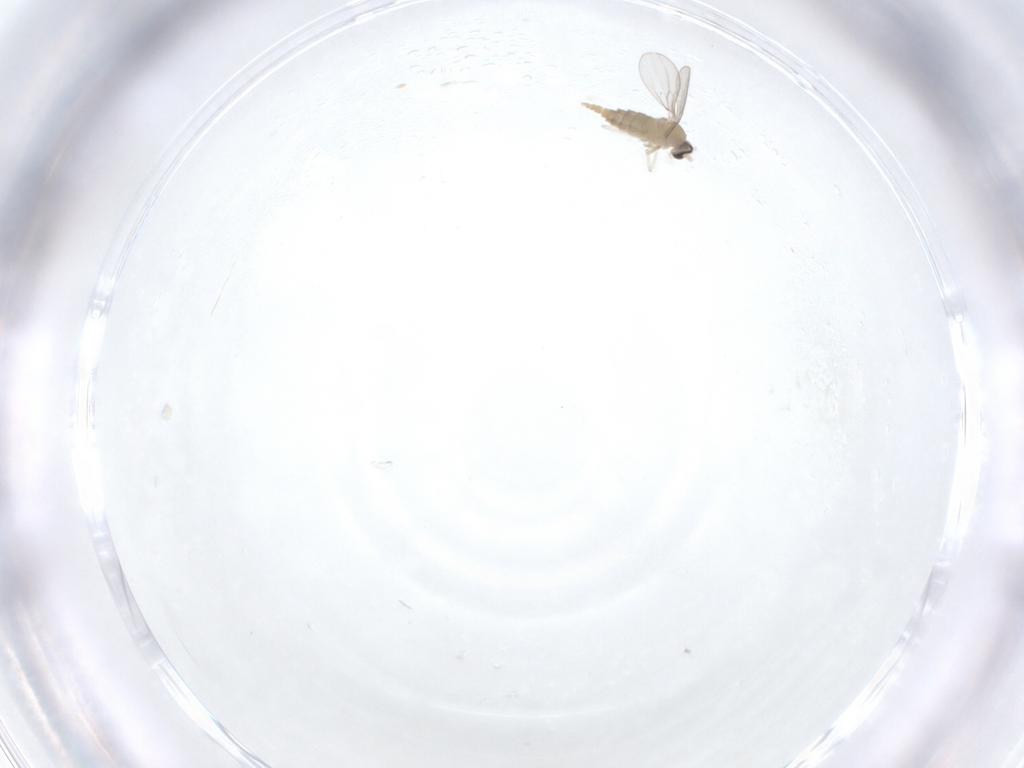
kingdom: Animalia
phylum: Arthropoda
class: Insecta
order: Diptera
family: Cecidomyiidae
